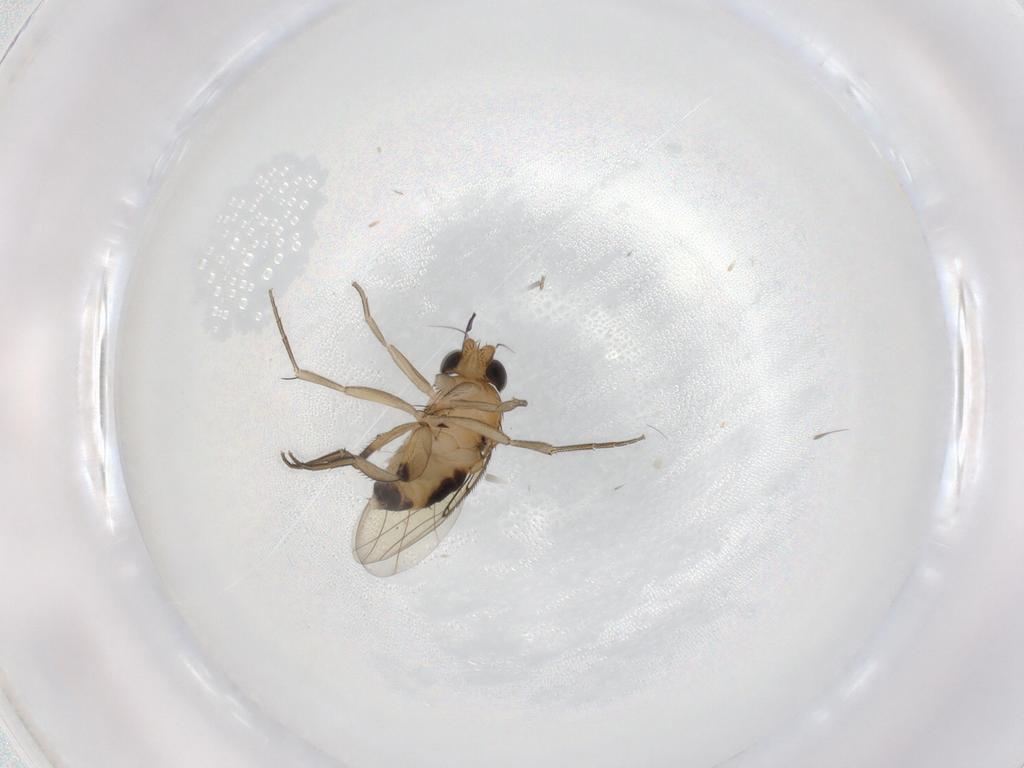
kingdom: Animalia
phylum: Arthropoda
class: Insecta
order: Diptera
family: Phoridae
